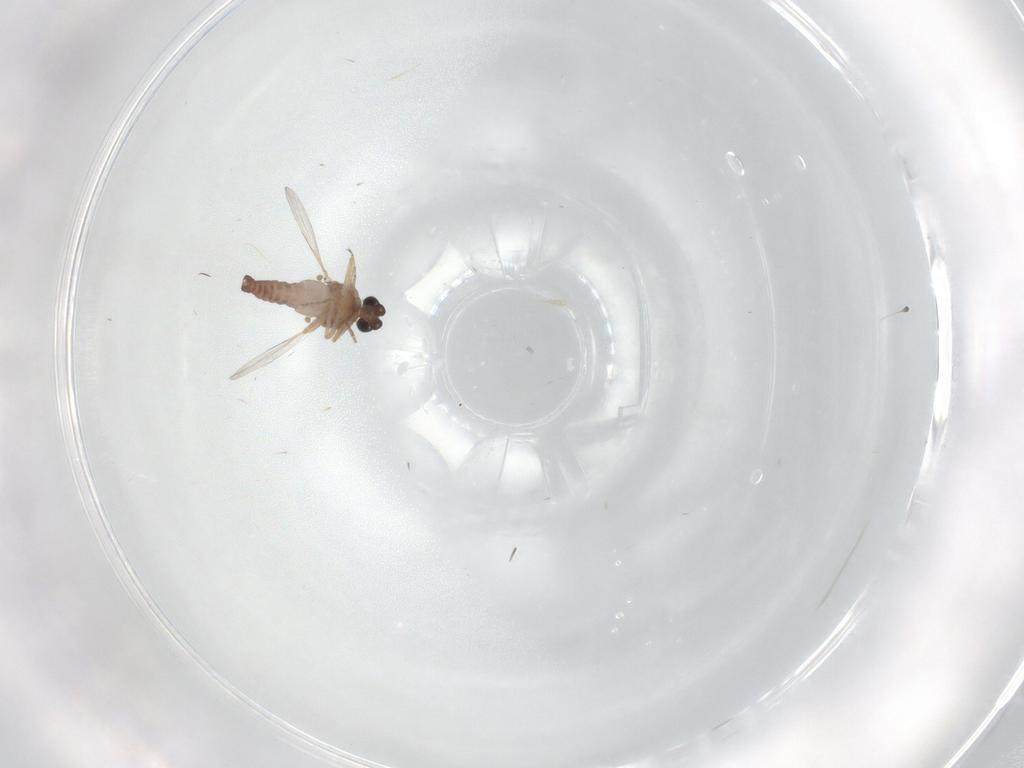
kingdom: Animalia
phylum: Arthropoda
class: Insecta
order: Diptera
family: Ceratopogonidae
